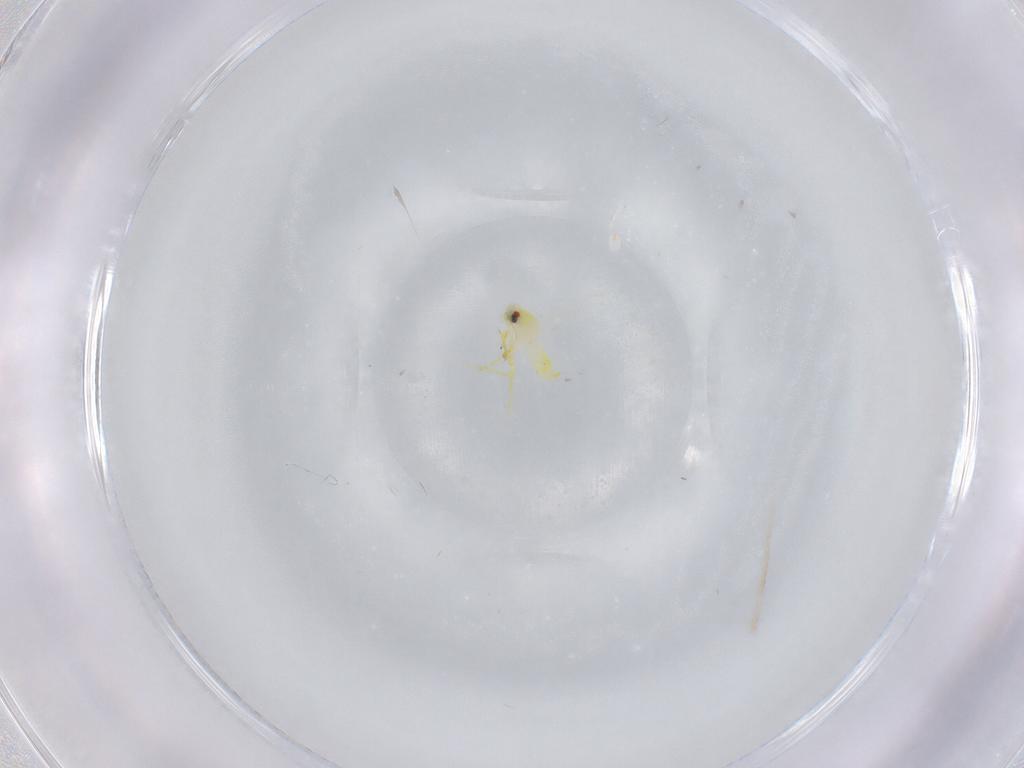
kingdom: Animalia
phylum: Arthropoda
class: Insecta
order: Hemiptera
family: Aleyrodidae
